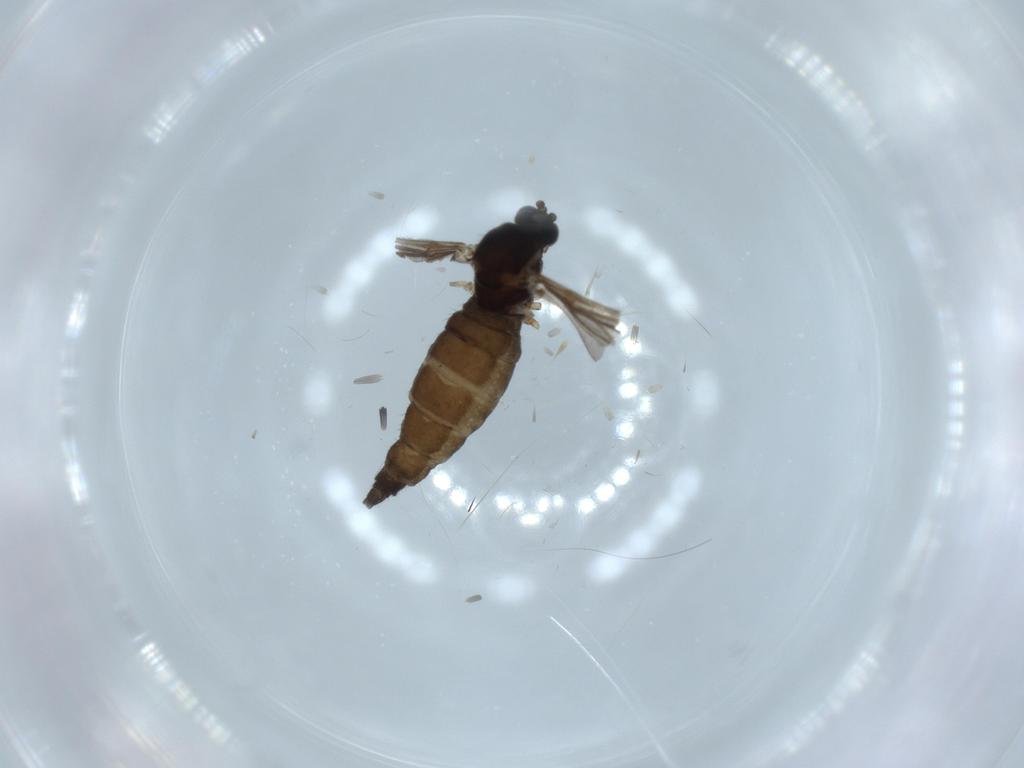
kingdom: Animalia
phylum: Arthropoda
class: Insecta
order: Diptera
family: Sciaridae
